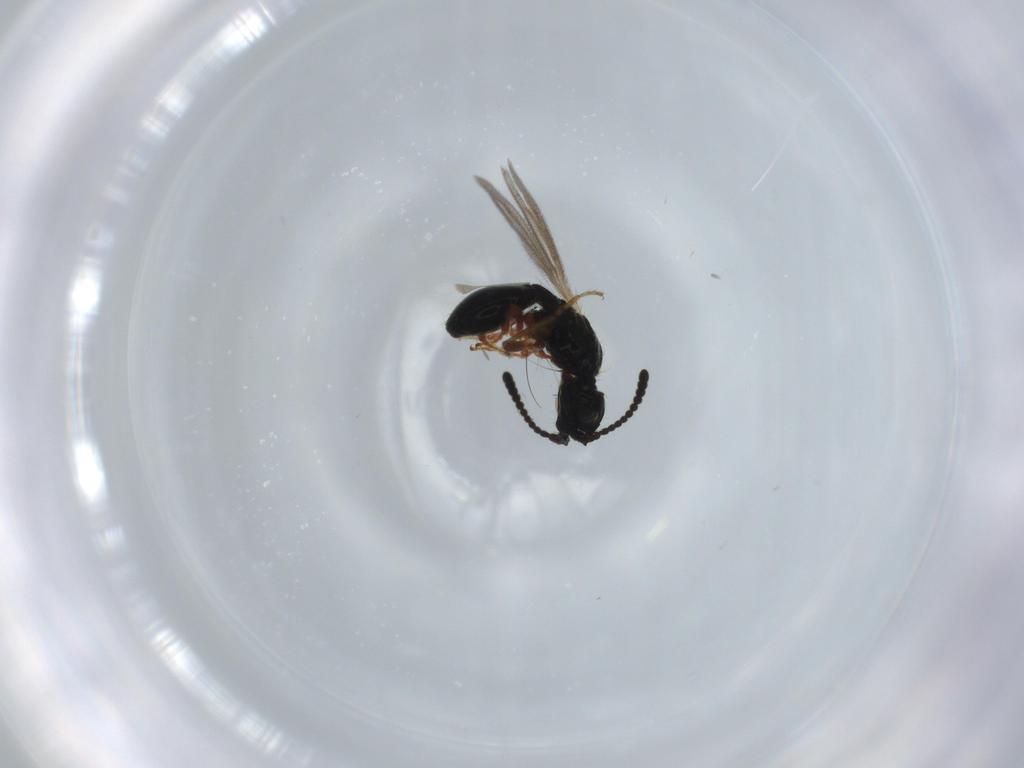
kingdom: Animalia
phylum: Arthropoda
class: Insecta
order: Hymenoptera
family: Diapriidae
